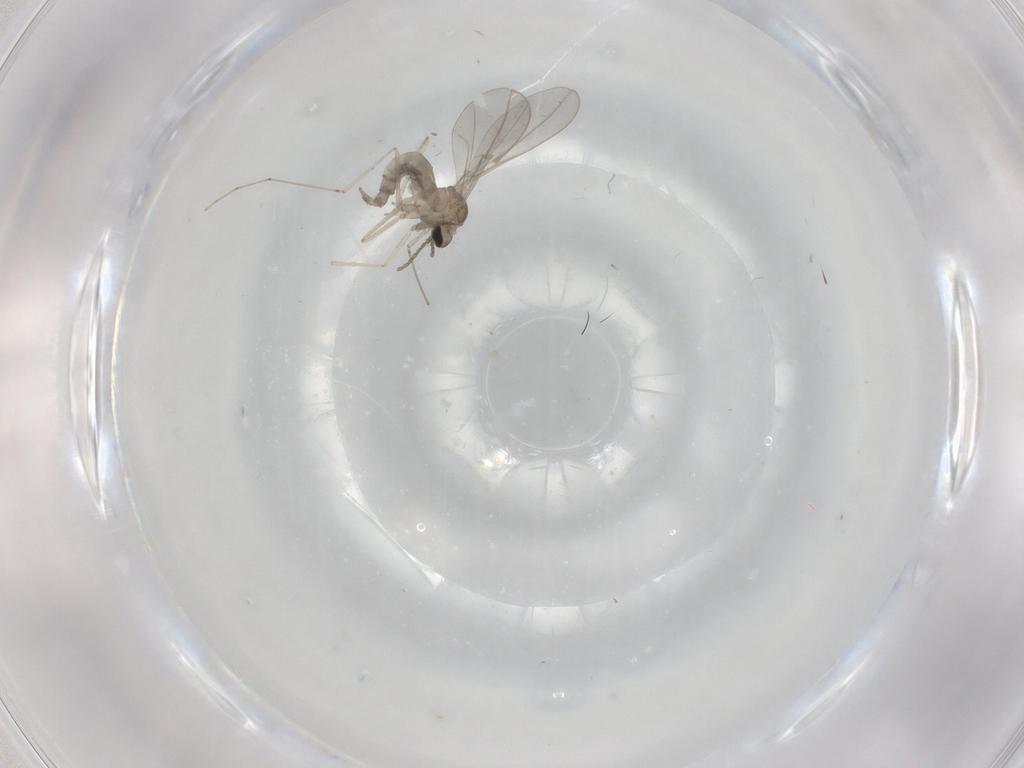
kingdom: Animalia
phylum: Arthropoda
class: Insecta
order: Diptera
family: Cecidomyiidae
